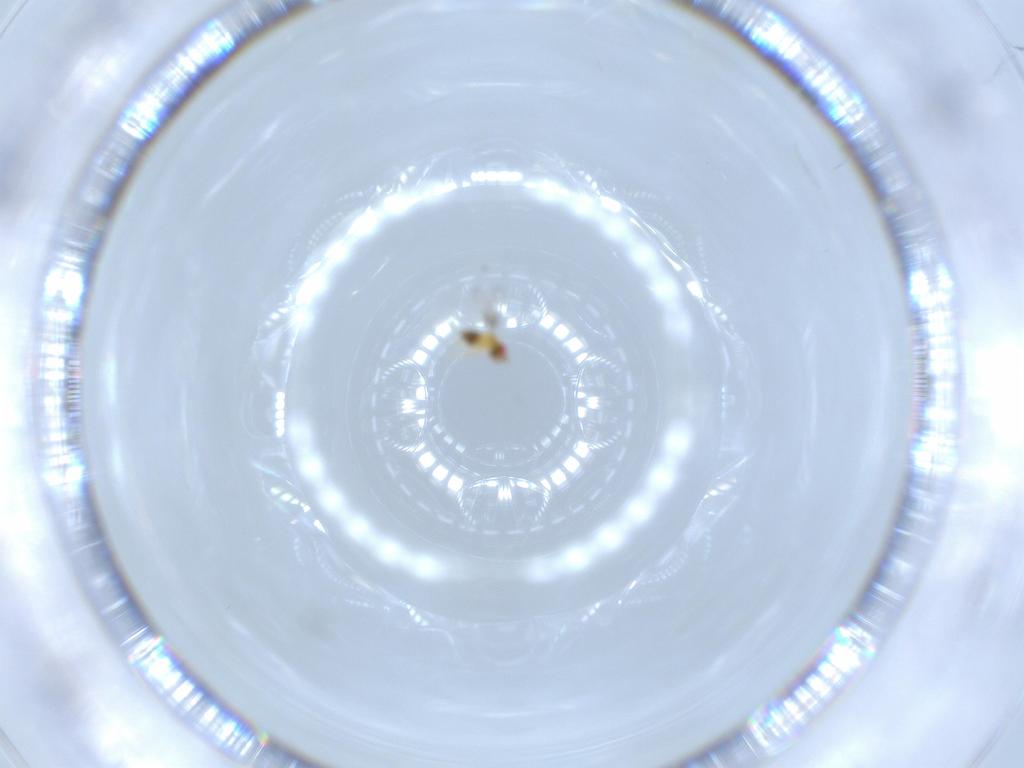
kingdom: Animalia
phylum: Arthropoda
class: Insecta
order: Hymenoptera
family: Trichogrammatidae
